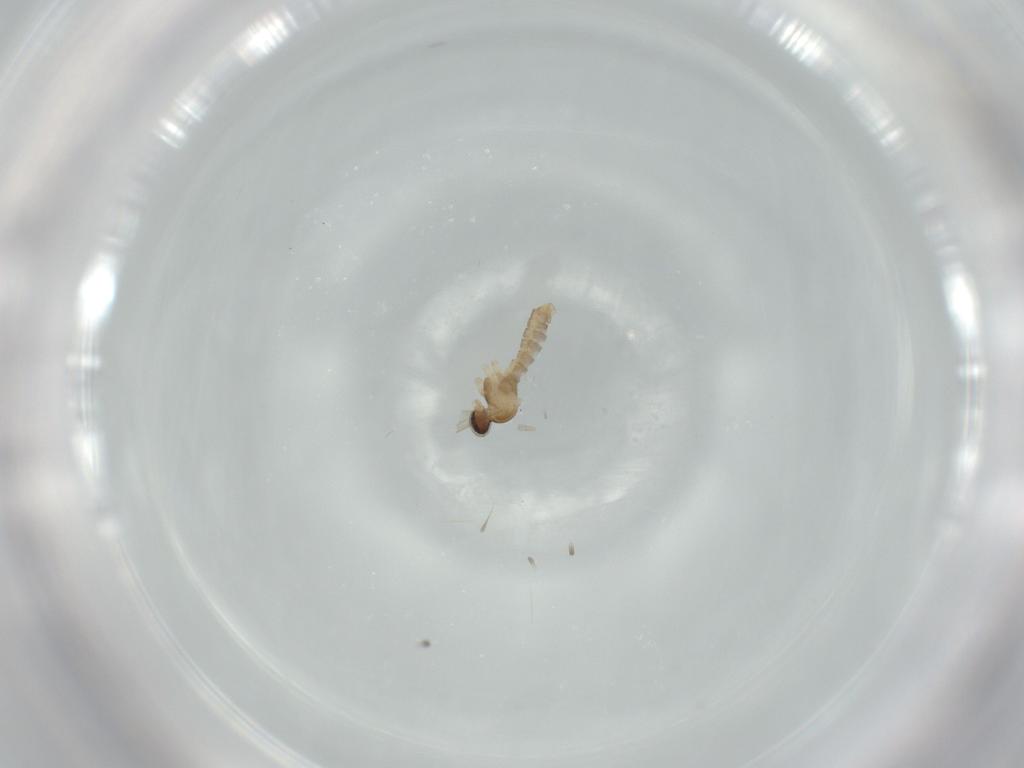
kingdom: Animalia
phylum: Arthropoda
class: Insecta
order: Diptera
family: Cecidomyiidae
